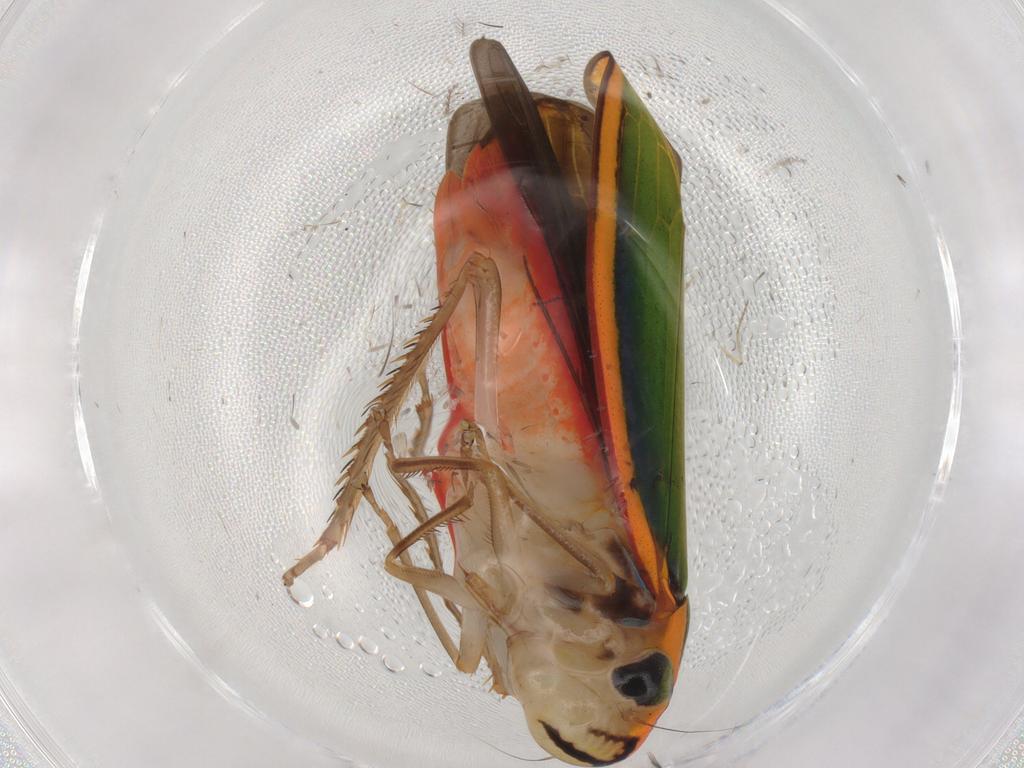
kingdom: Animalia
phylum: Arthropoda
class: Insecta
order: Hemiptera
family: Cicadellidae
